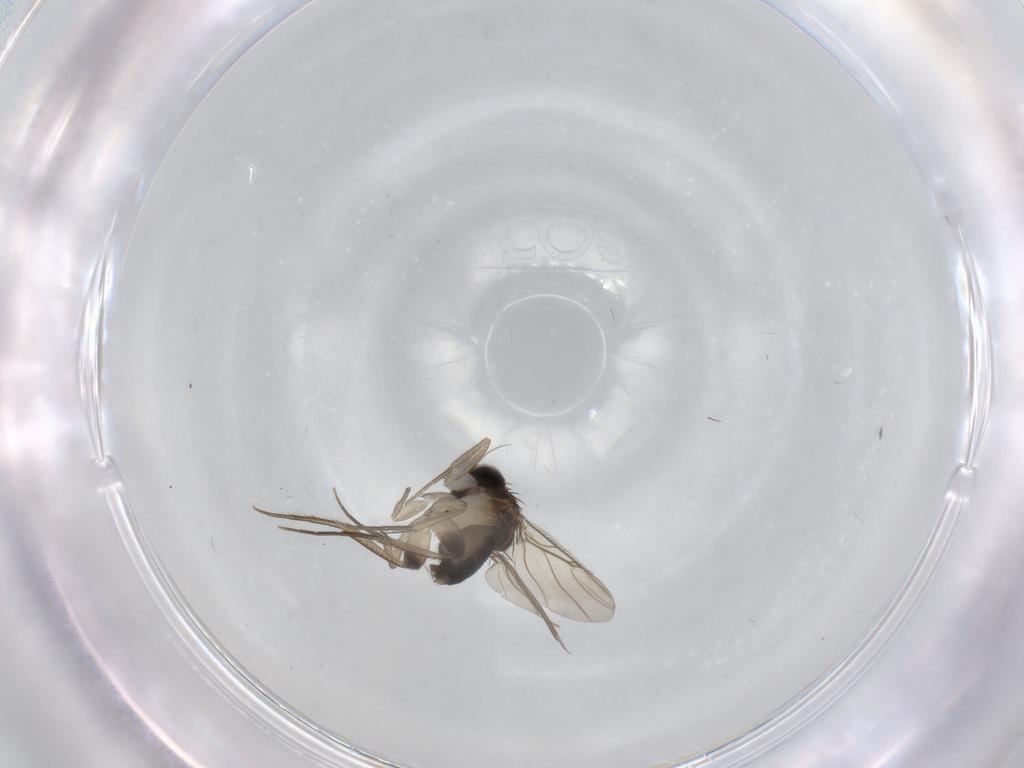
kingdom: Animalia
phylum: Arthropoda
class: Insecta
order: Diptera
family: Phoridae
